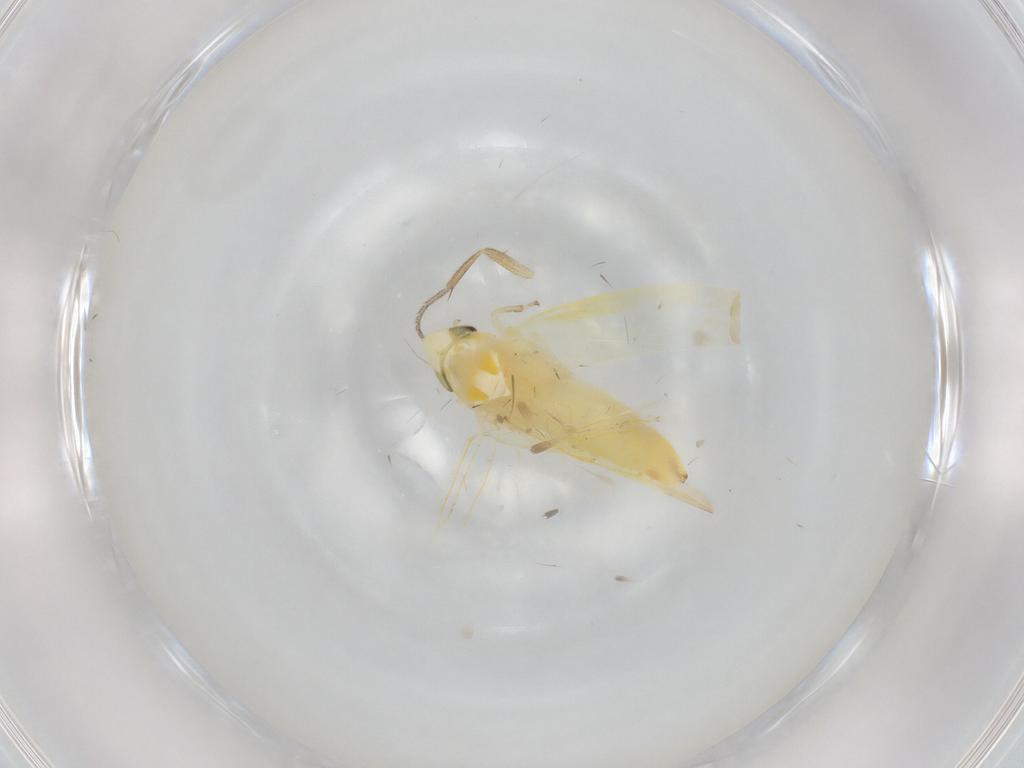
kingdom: Animalia
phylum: Arthropoda
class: Insecta
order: Hemiptera
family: Cicadellidae
